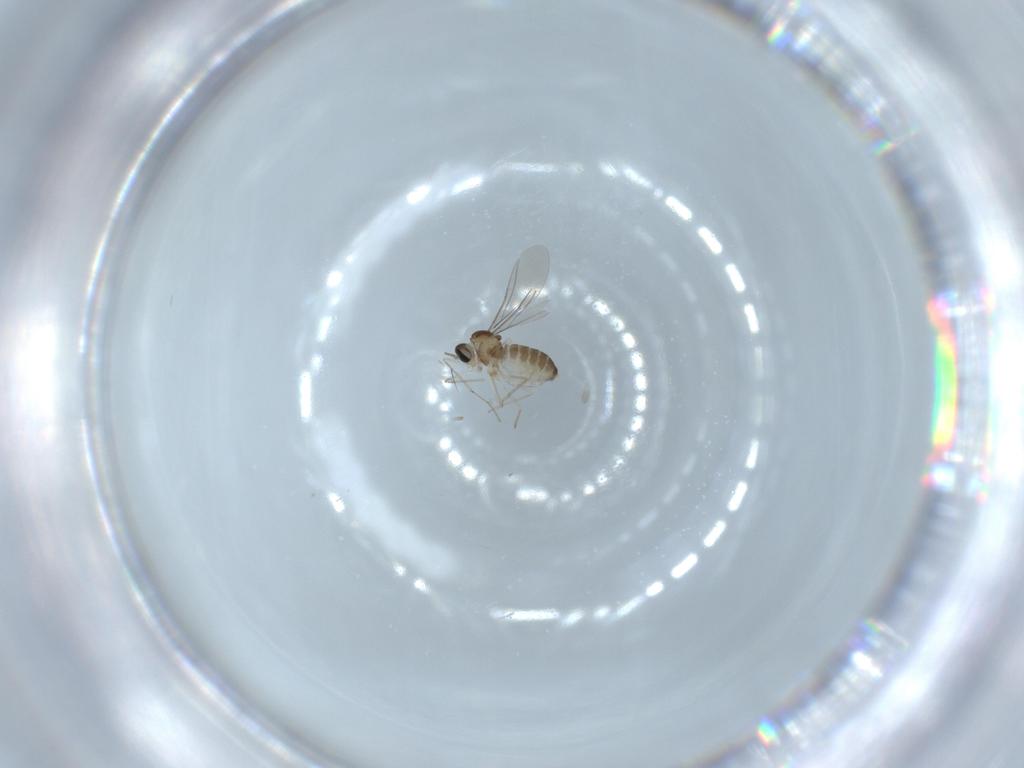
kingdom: Animalia
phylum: Arthropoda
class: Insecta
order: Diptera
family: Cecidomyiidae
